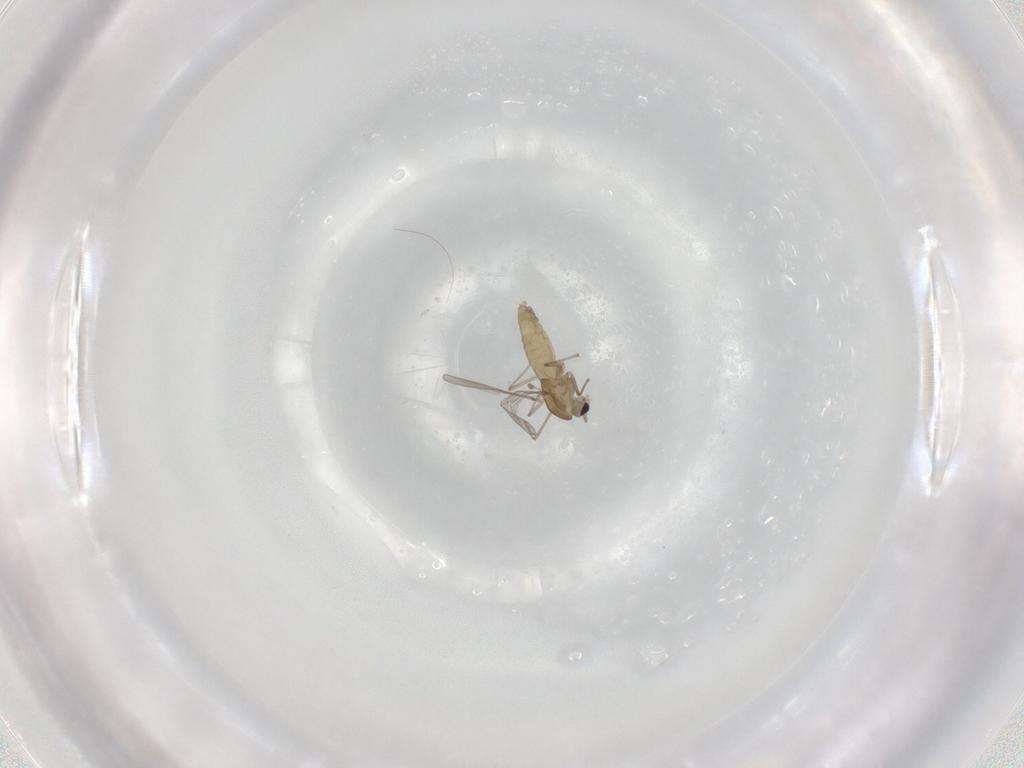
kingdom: Animalia
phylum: Arthropoda
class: Insecta
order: Diptera
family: Chironomidae
